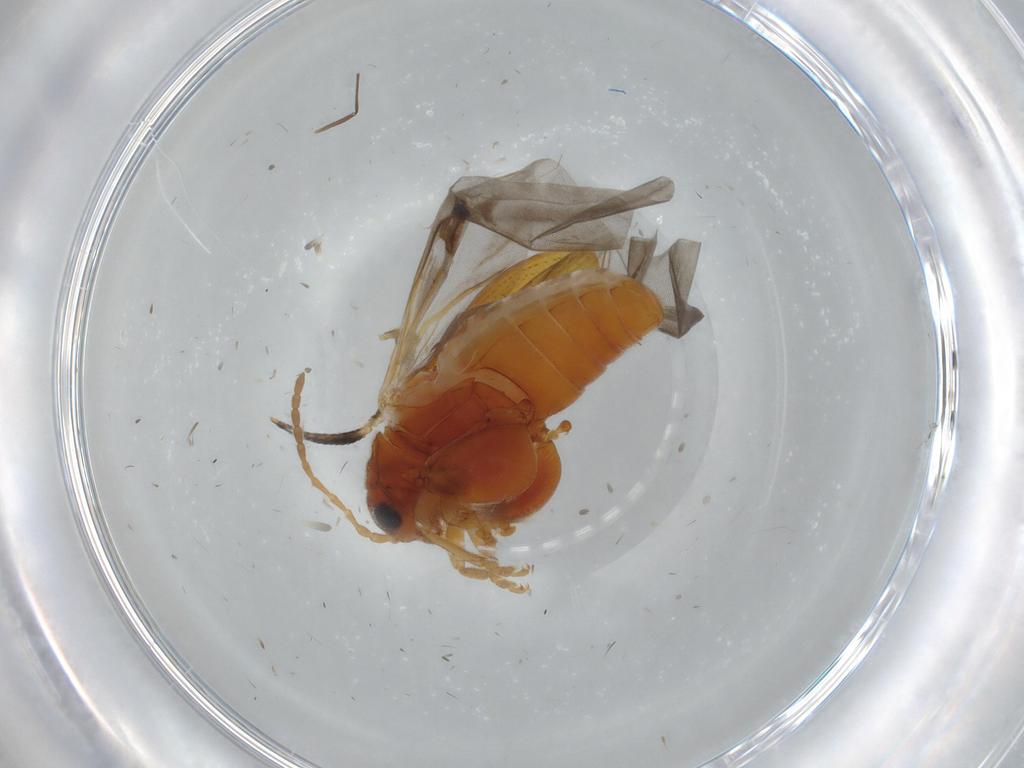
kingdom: Animalia
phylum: Arthropoda
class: Insecta
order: Coleoptera
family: Chrysomelidae
